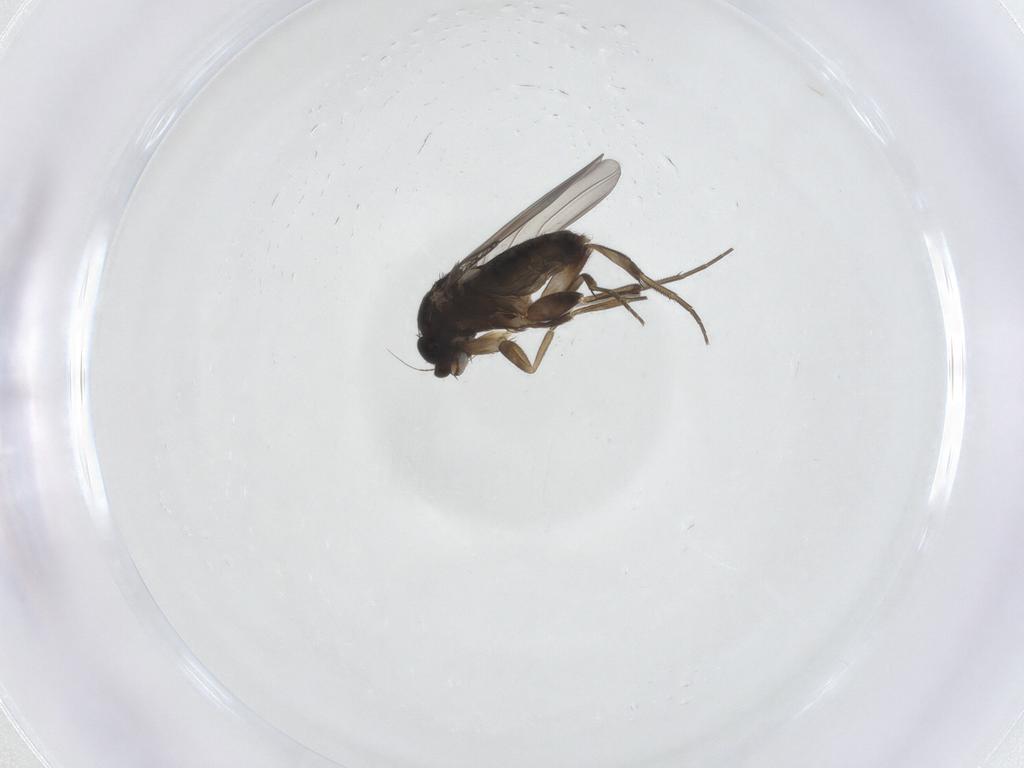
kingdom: Animalia
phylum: Arthropoda
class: Insecta
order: Diptera
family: Phoridae
